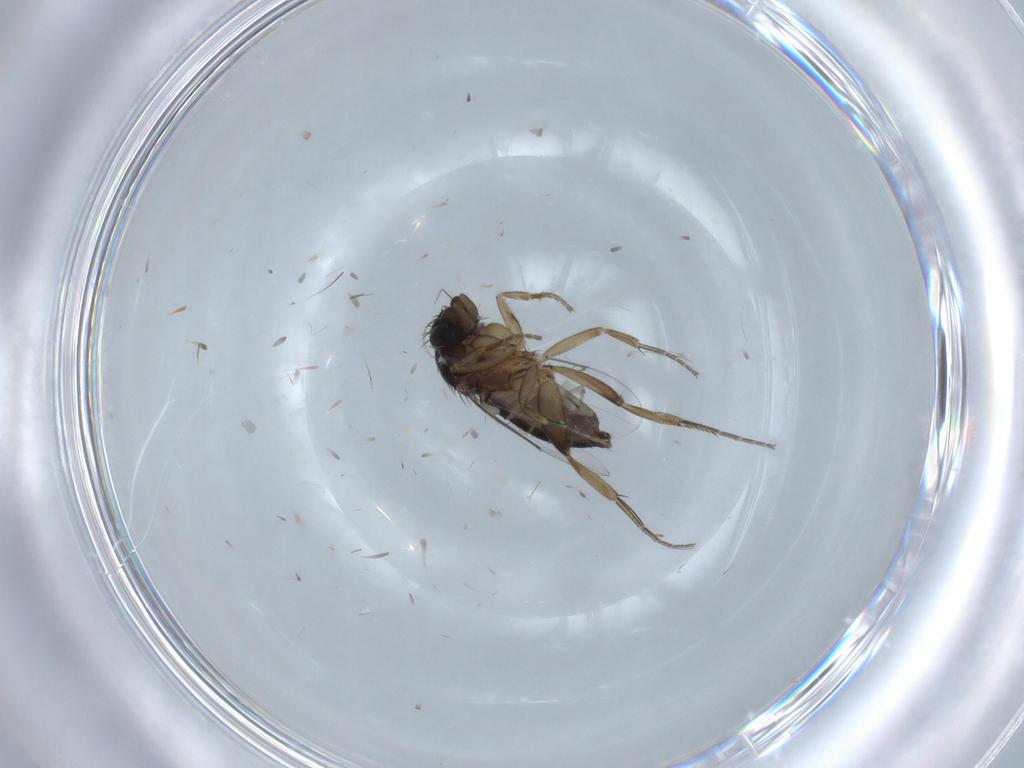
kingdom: Animalia
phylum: Arthropoda
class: Insecta
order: Diptera
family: Phoridae
